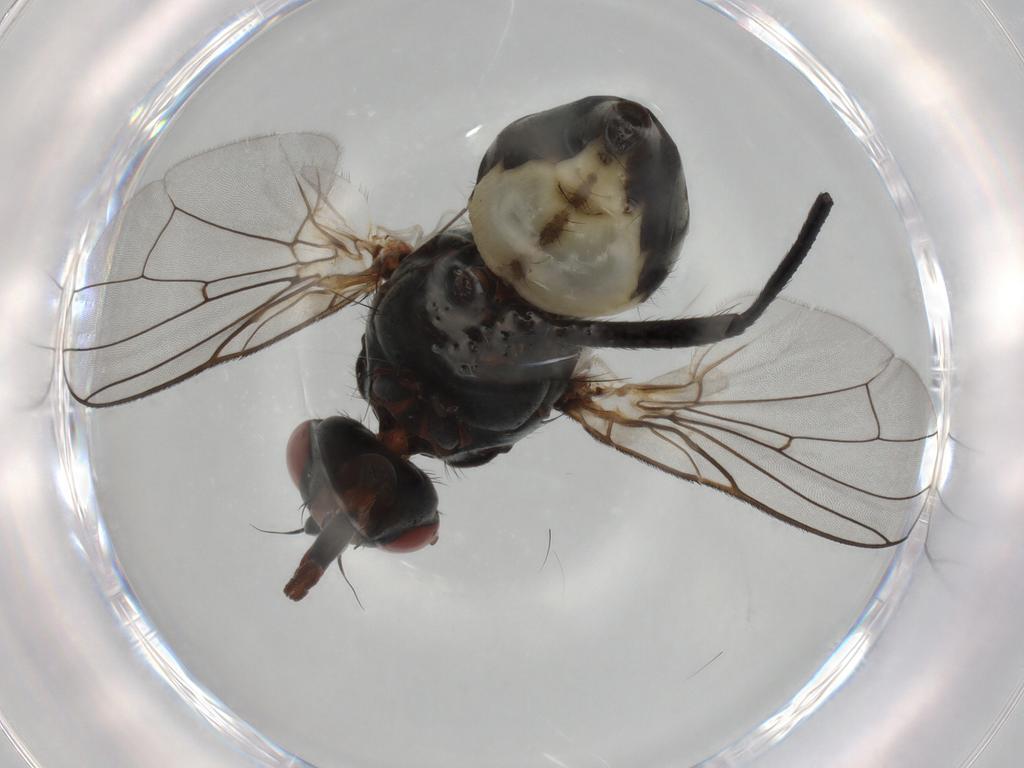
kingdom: Animalia
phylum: Arthropoda
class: Insecta
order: Diptera
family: Anthomyiidae
